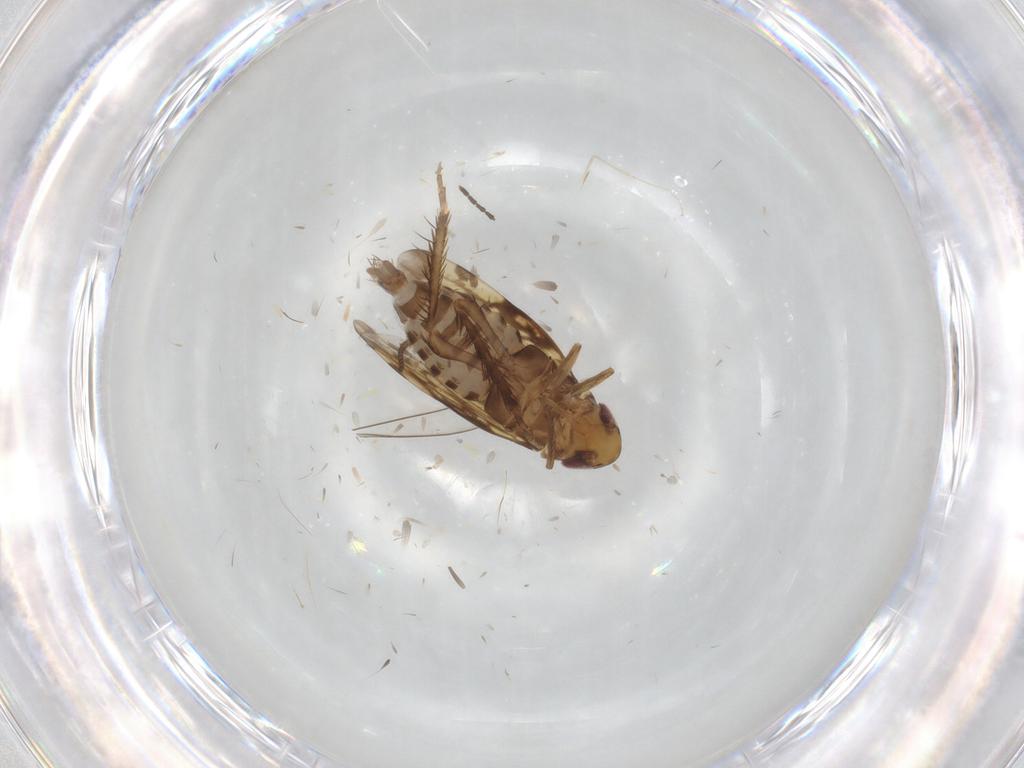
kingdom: Animalia
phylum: Arthropoda
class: Insecta
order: Hemiptera
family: Cicadellidae
